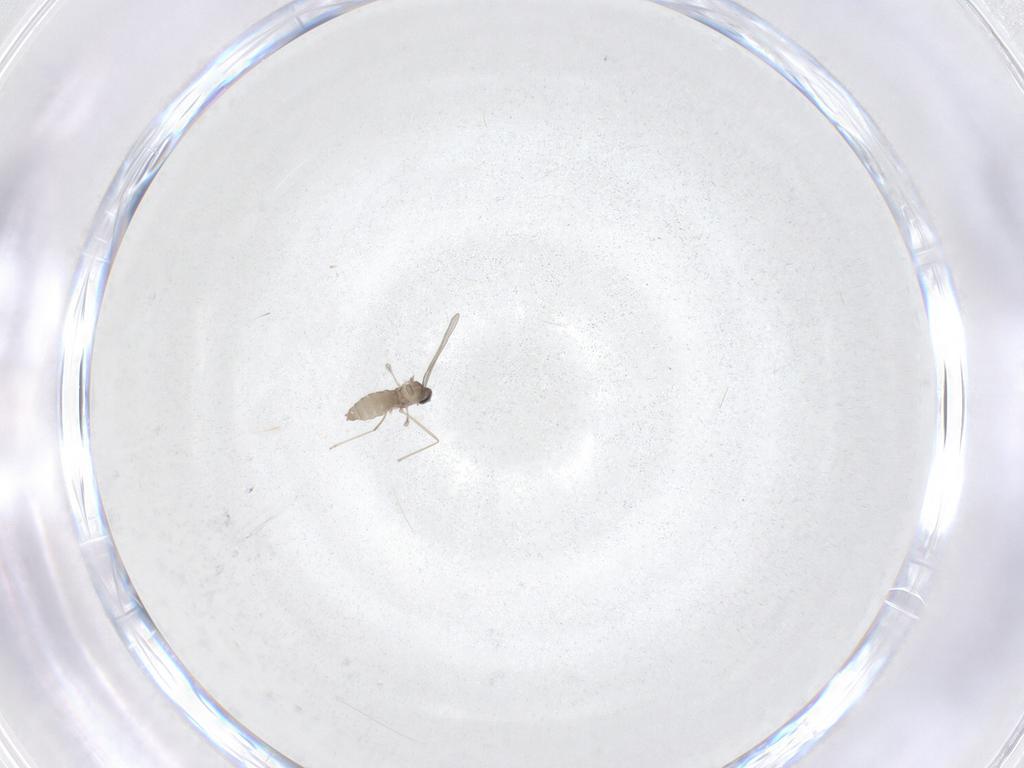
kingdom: Animalia
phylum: Arthropoda
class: Insecta
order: Diptera
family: Cecidomyiidae
